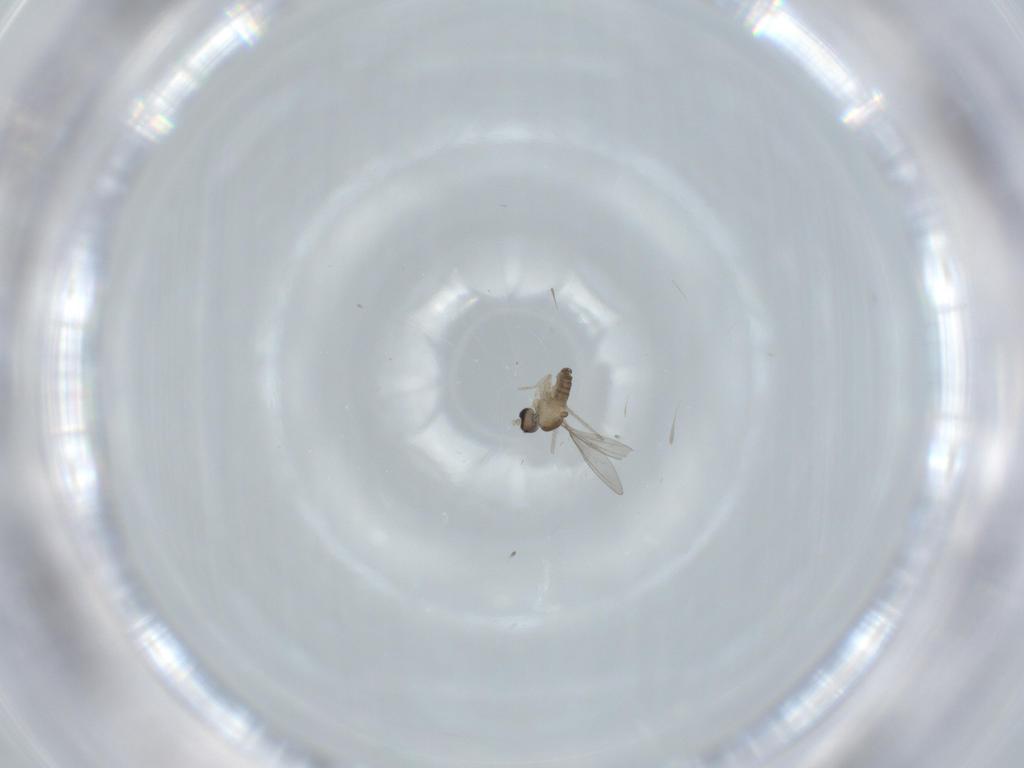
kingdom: Animalia
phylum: Arthropoda
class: Insecta
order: Diptera
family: Cecidomyiidae
